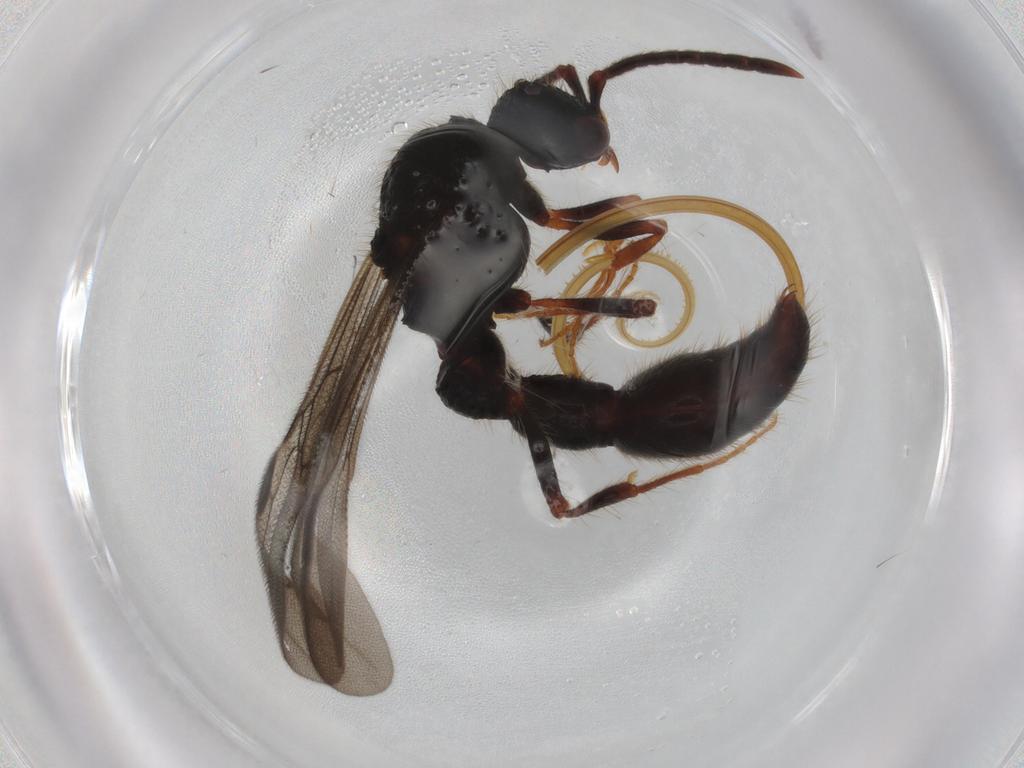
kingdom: Animalia
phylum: Arthropoda
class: Insecta
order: Hymenoptera
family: Formicidae
